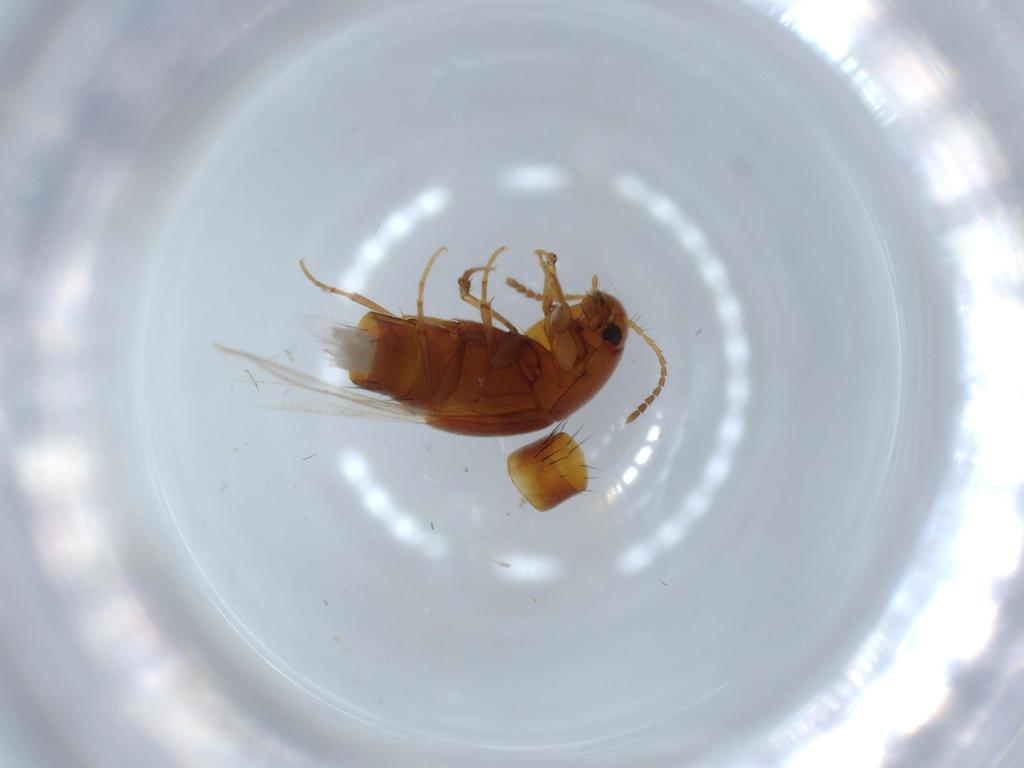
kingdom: Animalia
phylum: Arthropoda
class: Insecta
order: Coleoptera
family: Staphylinidae
